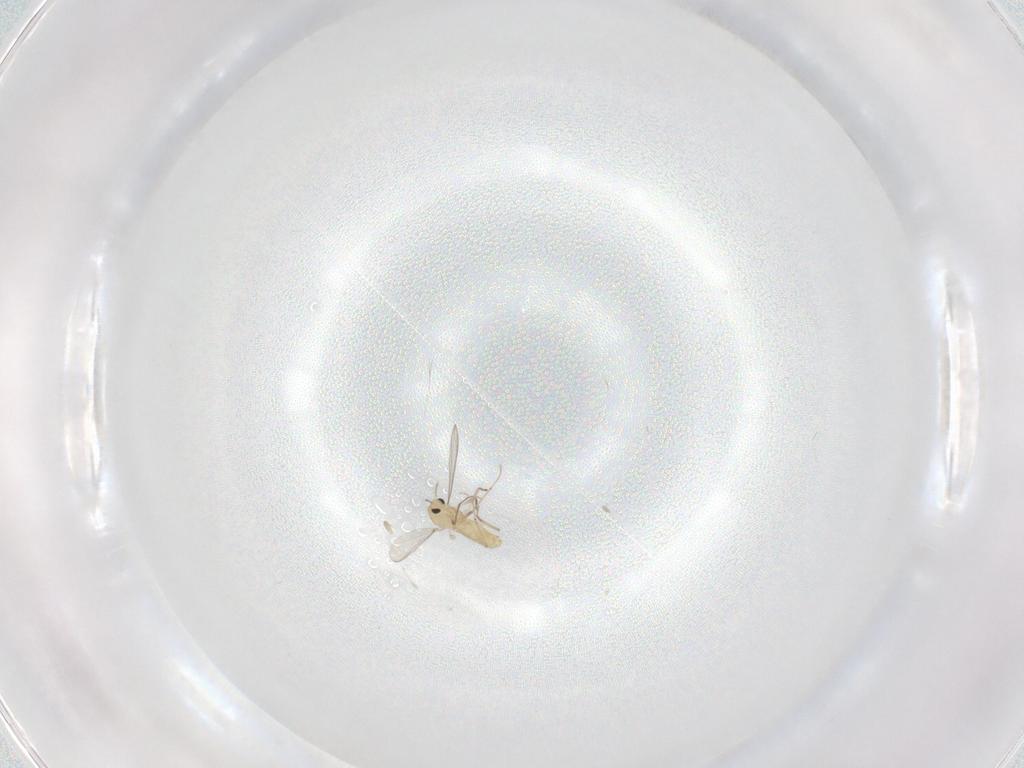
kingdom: Animalia
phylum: Arthropoda
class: Insecta
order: Diptera
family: Chironomidae
